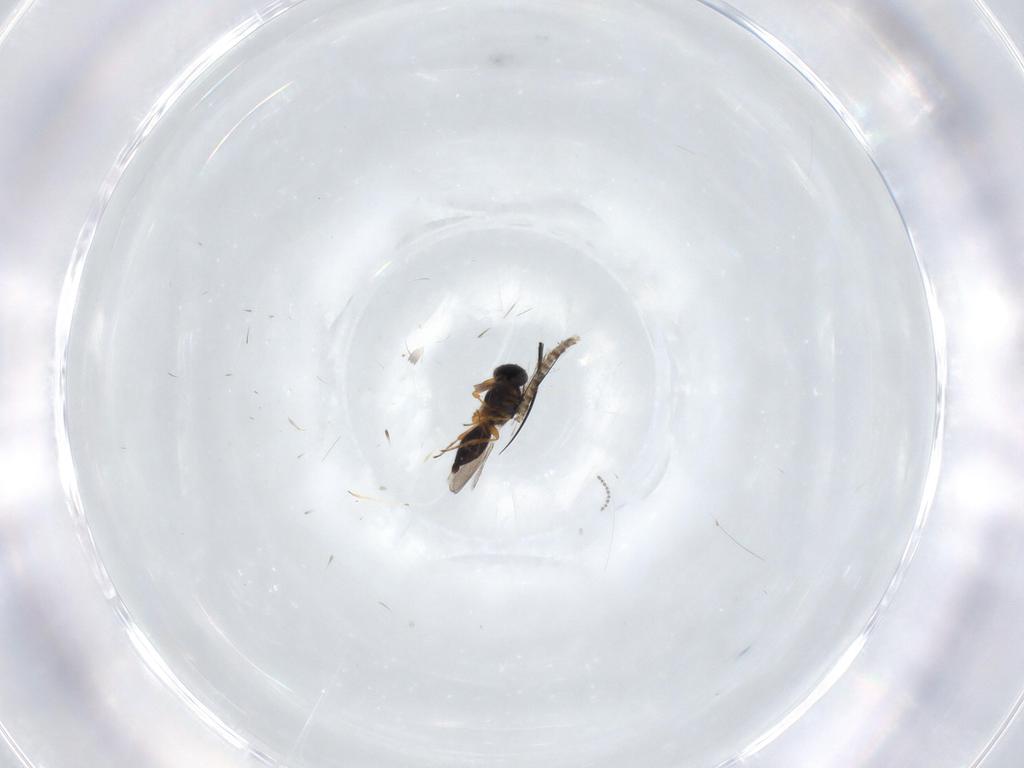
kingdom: Animalia
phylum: Arthropoda
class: Insecta
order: Hymenoptera
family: Platygastridae
